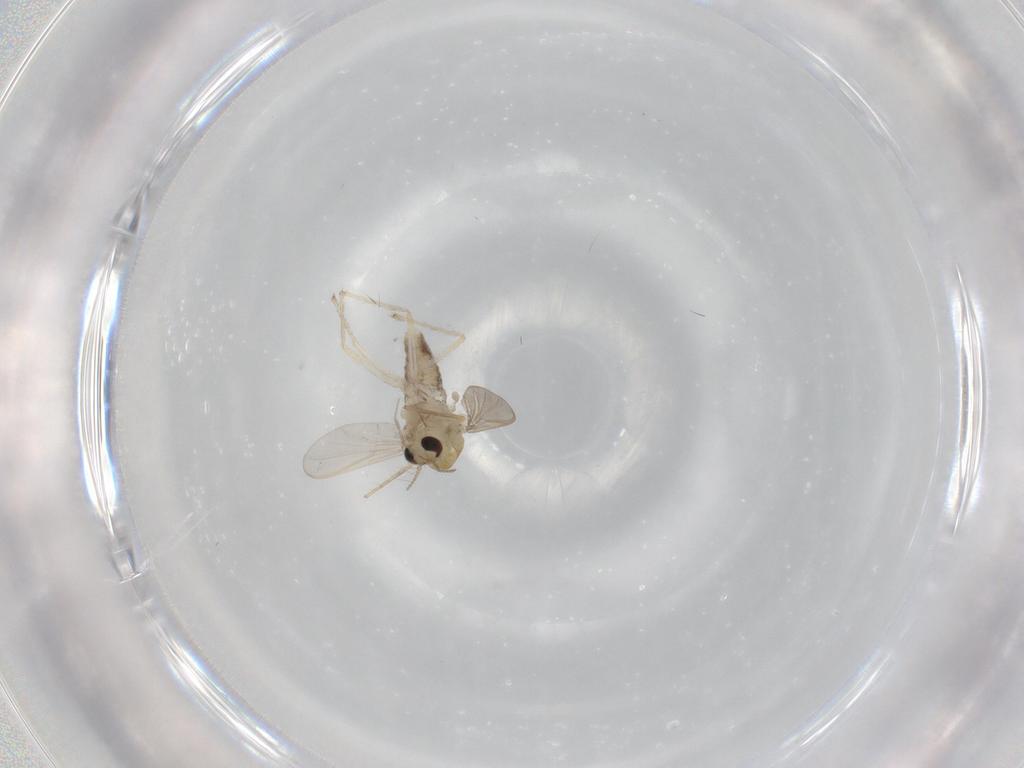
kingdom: Animalia
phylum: Arthropoda
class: Insecta
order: Diptera
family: Chironomidae
